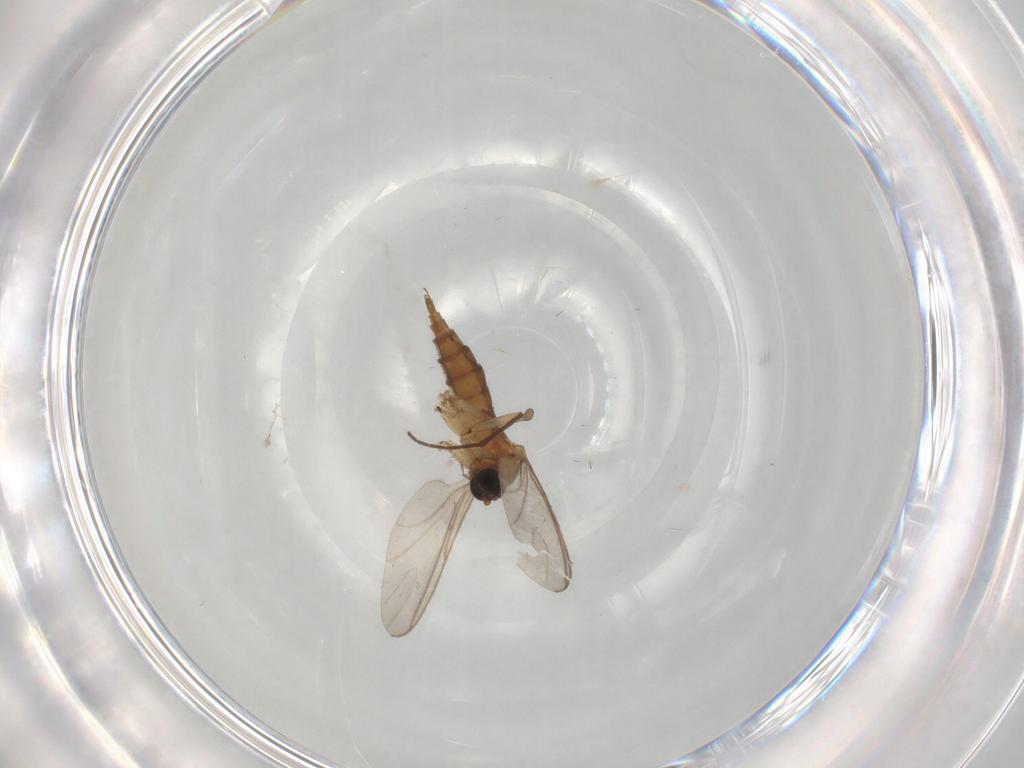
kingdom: Animalia
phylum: Arthropoda
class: Insecta
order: Diptera
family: Sciaridae
